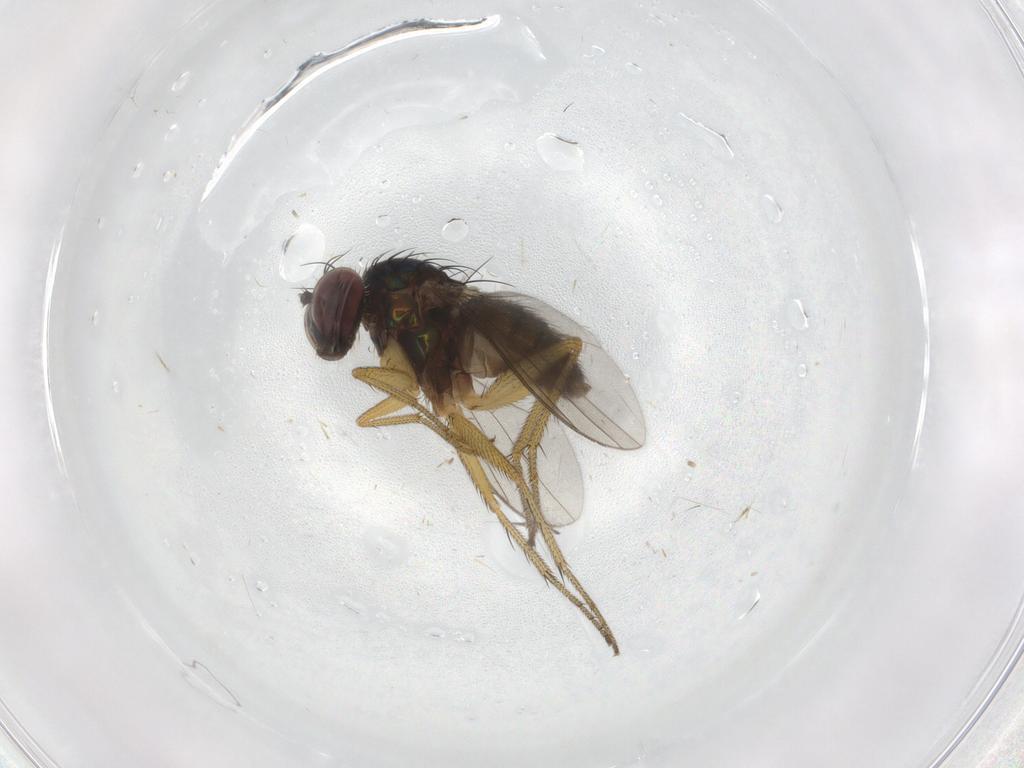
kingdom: Animalia
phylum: Arthropoda
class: Insecta
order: Diptera
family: Dolichopodidae
